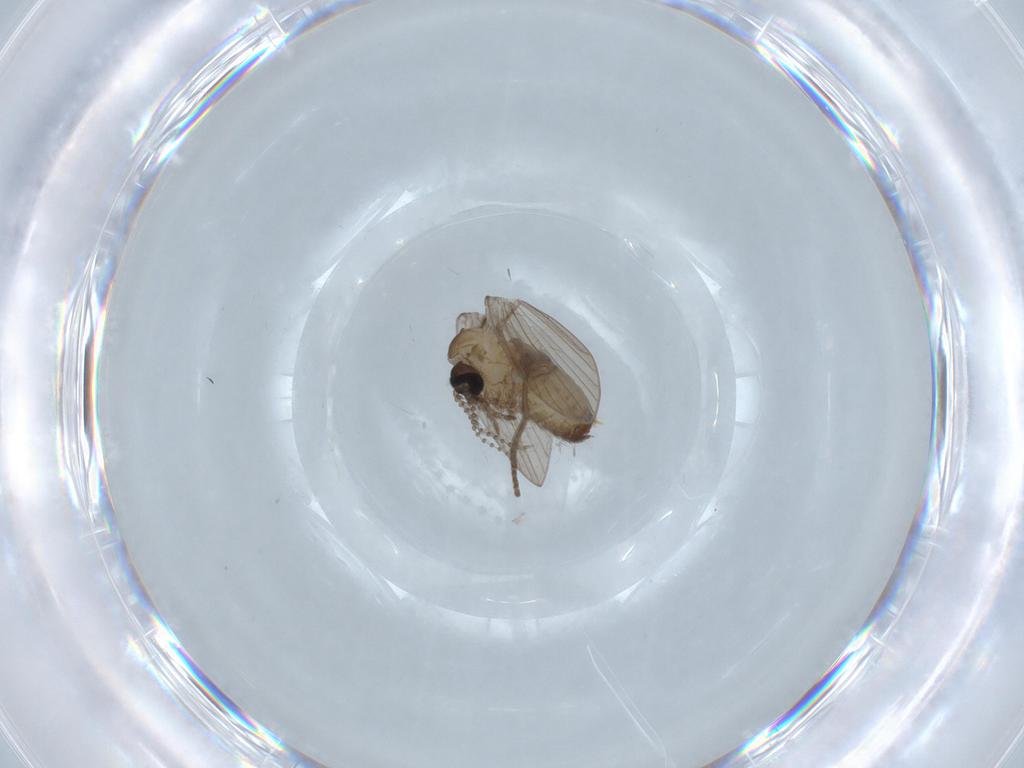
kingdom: Animalia
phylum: Arthropoda
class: Insecta
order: Diptera
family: Psychodidae
